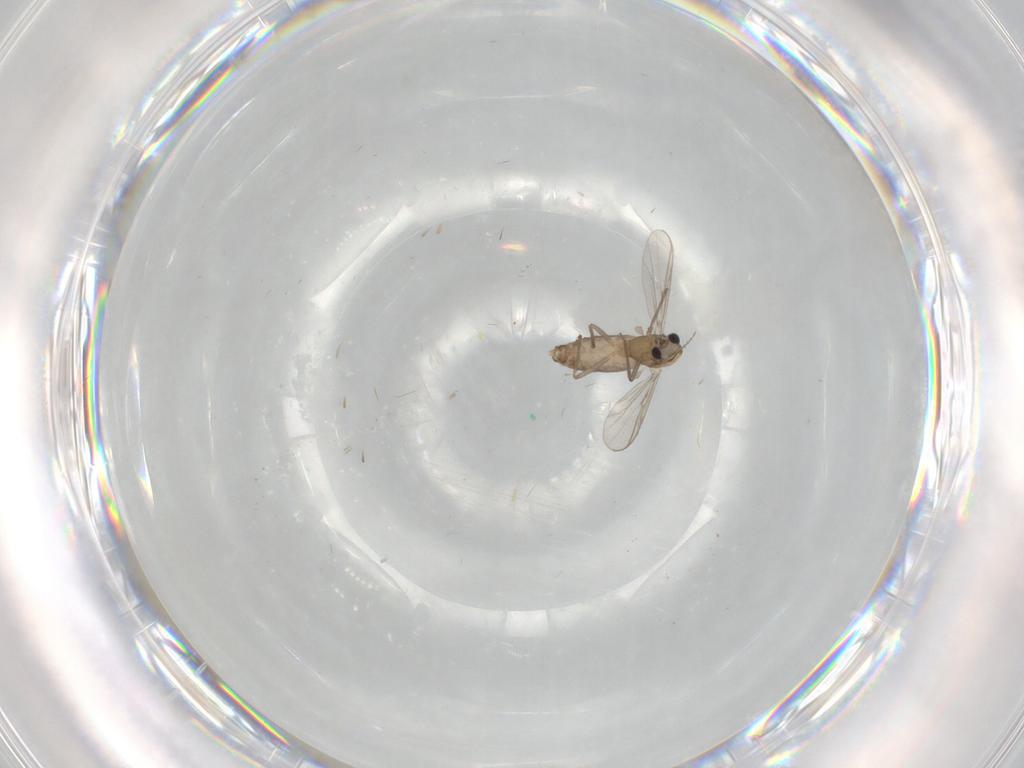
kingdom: Animalia
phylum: Arthropoda
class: Insecta
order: Diptera
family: Chironomidae
